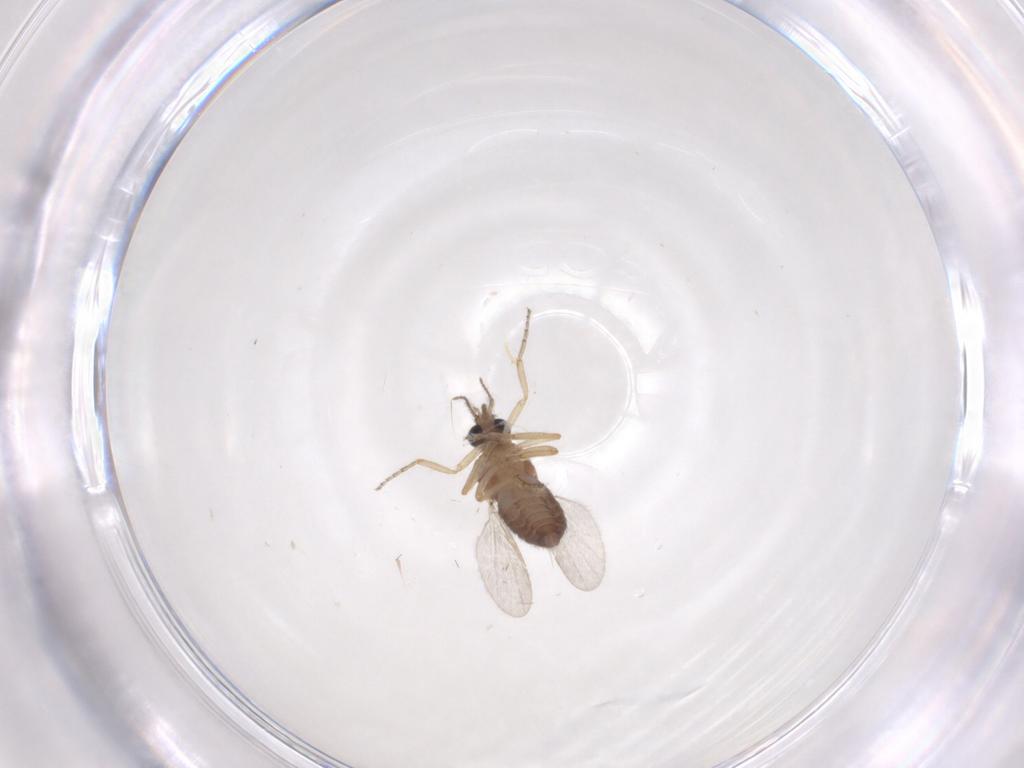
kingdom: Animalia
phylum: Arthropoda
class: Insecta
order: Diptera
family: Ceratopogonidae
